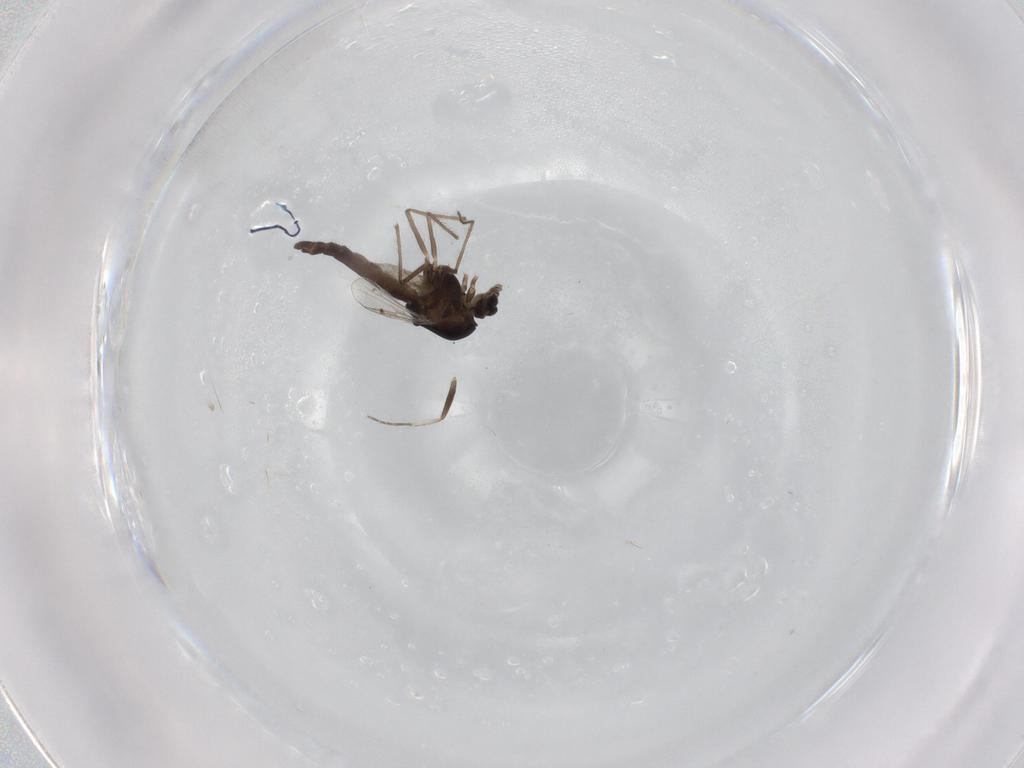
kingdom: Animalia
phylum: Arthropoda
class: Insecta
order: Diptera
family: Chironomidae
